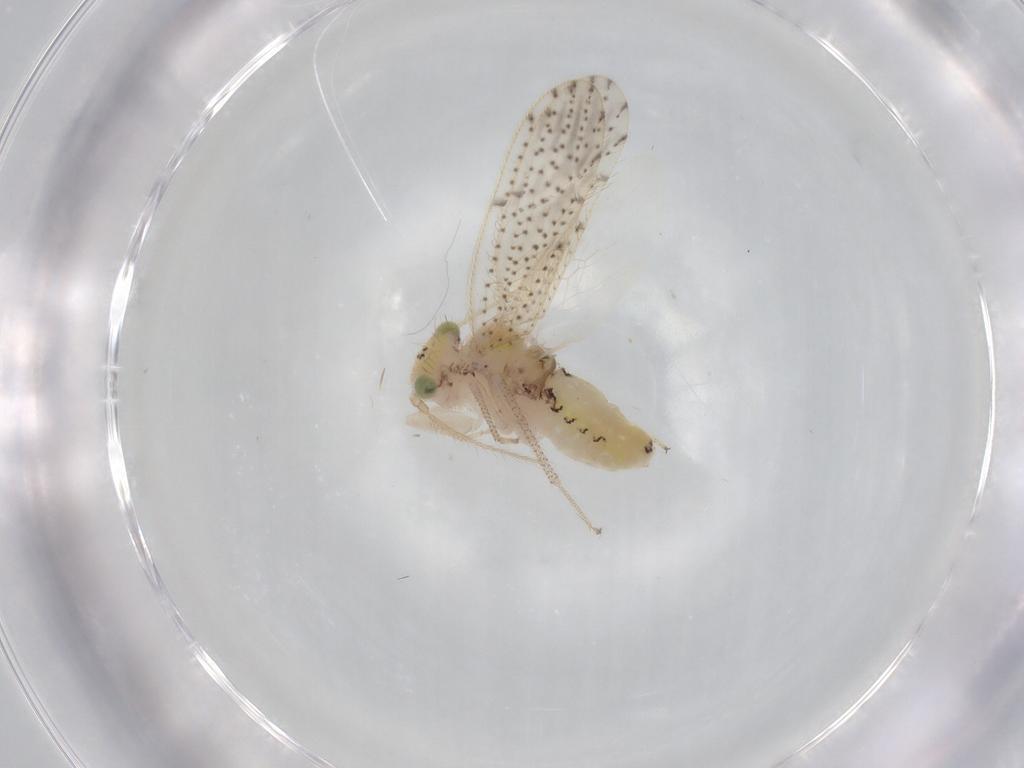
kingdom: Animalia
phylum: Arthropoda
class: Insecta
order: Psocodea
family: Myopsocidae
